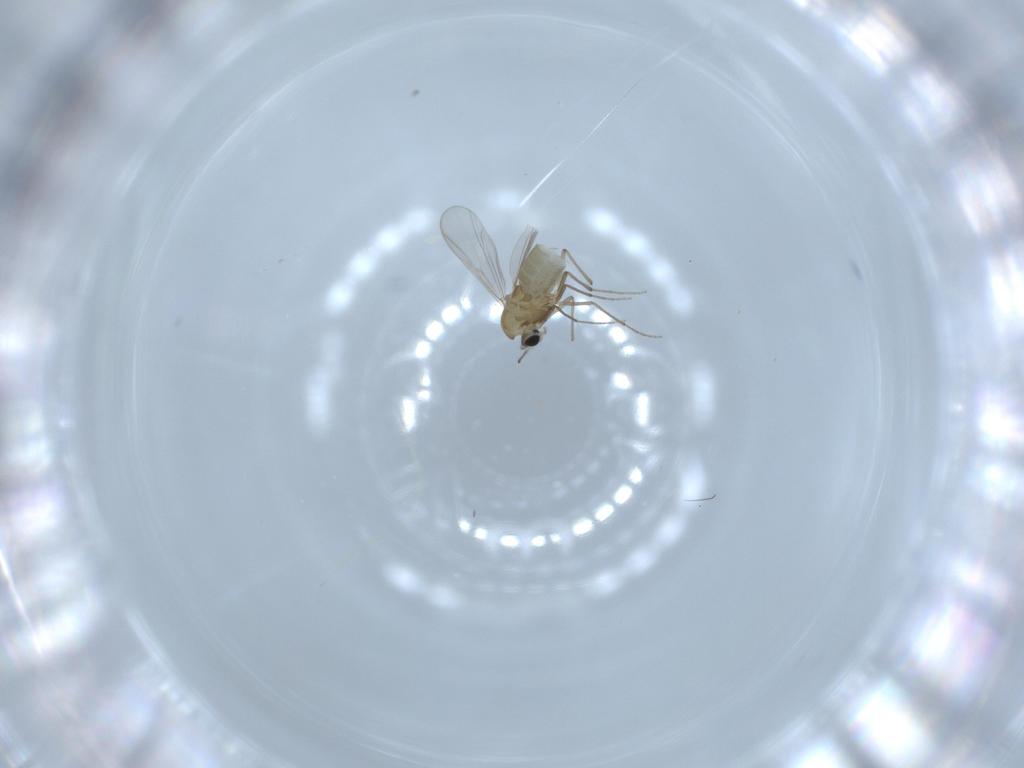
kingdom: Animalia
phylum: Arthropoda
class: Insecta
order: Diptera
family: Chironomidae
